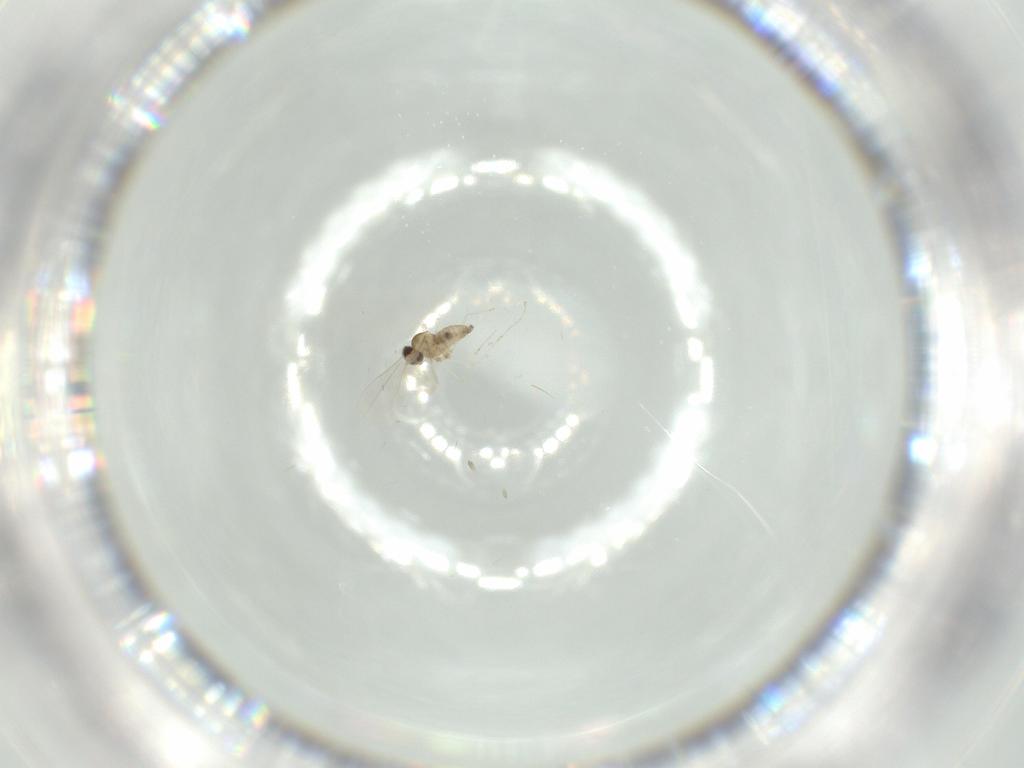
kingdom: Animalia
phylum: Arthropoda
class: Insecta
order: Diptera
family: Cecidomyiidae
